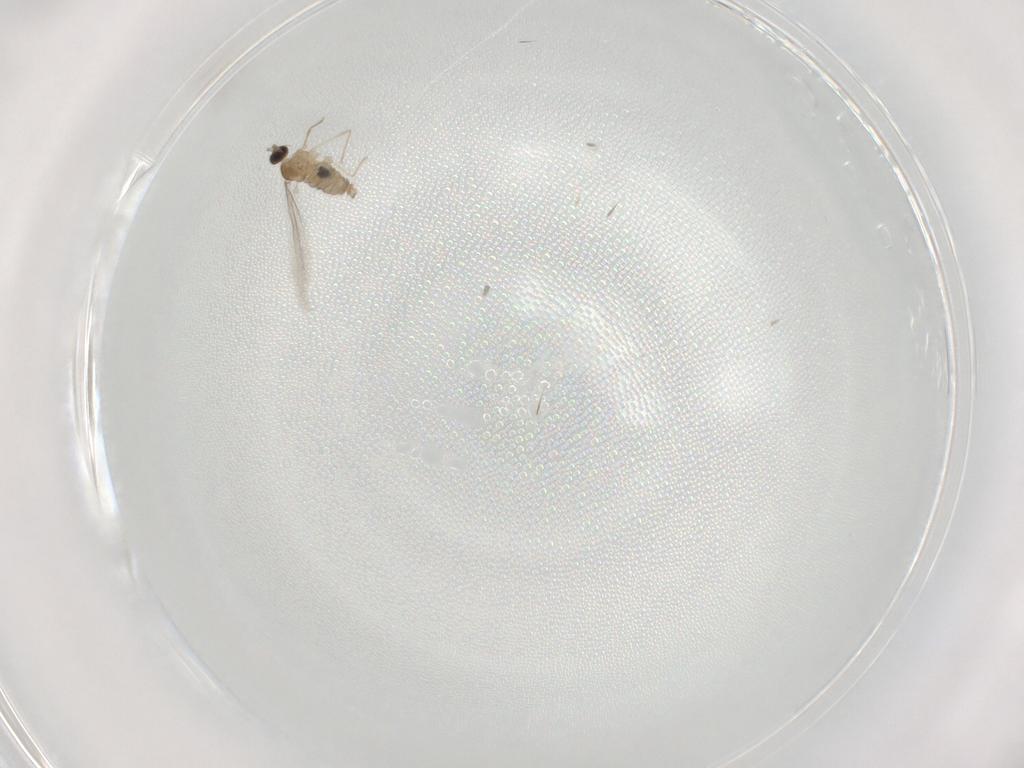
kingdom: Animalia
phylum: Arthropoda
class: Insecta
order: Diptera
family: Cecidomyiidae
